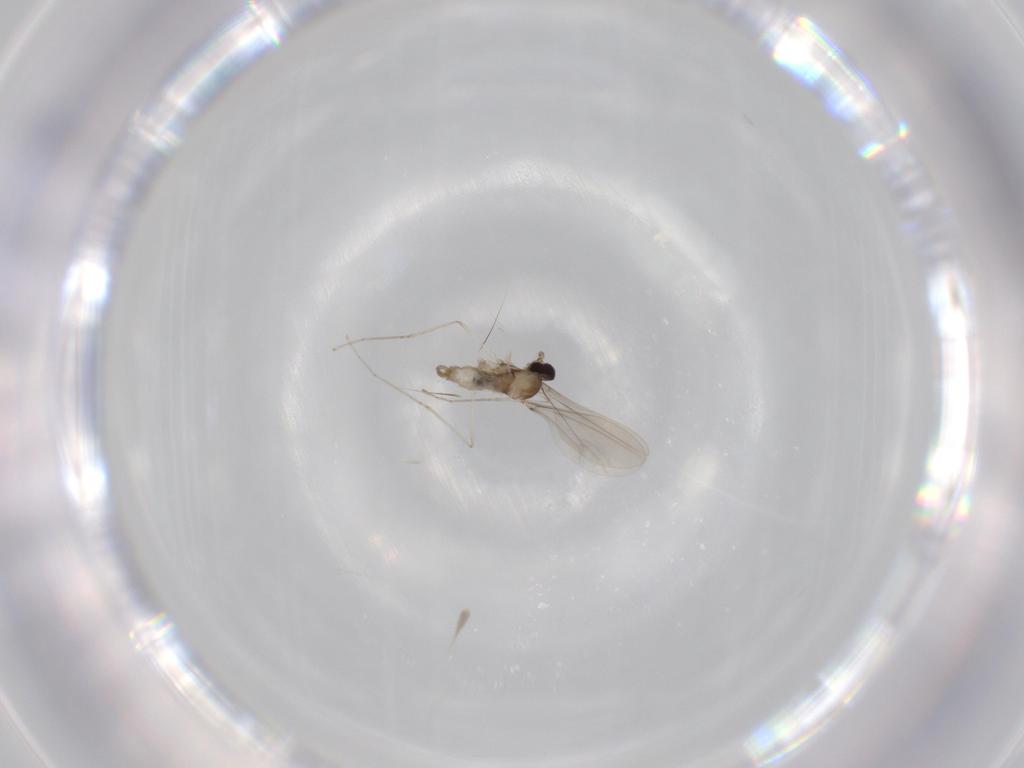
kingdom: Animalia
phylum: Arthropoda
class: Insecta
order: Diptera
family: Cecidomyiidae
